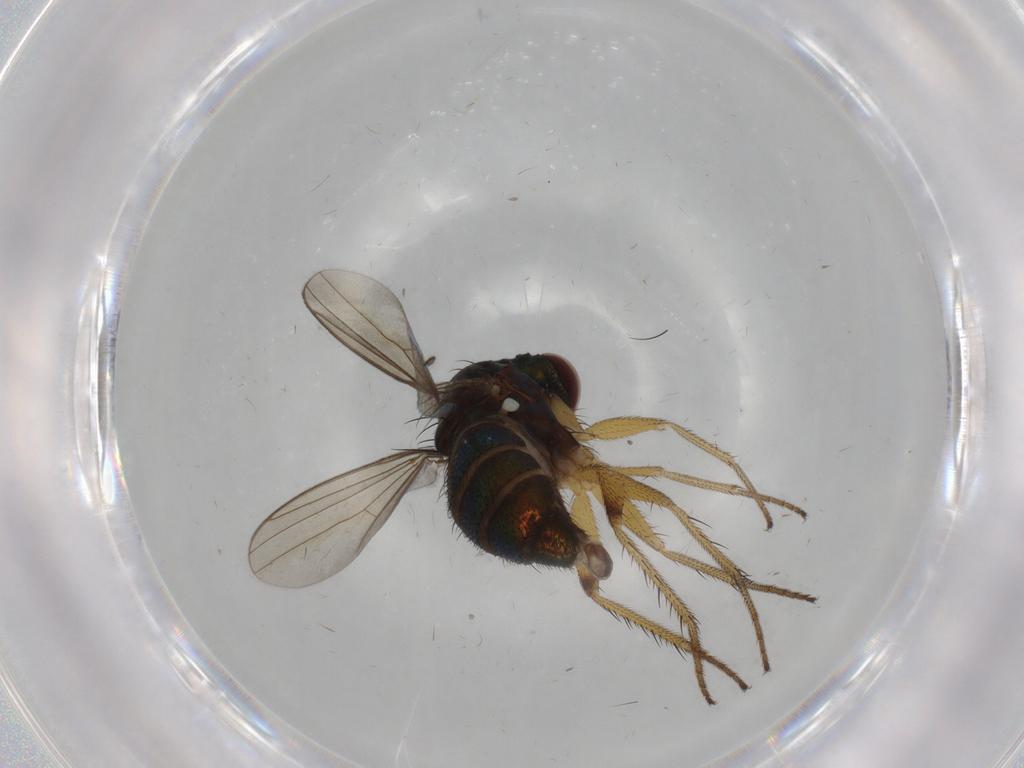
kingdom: Animalia
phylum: Arthropoda
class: Insecta
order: Diptera
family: Dolichopodidae
